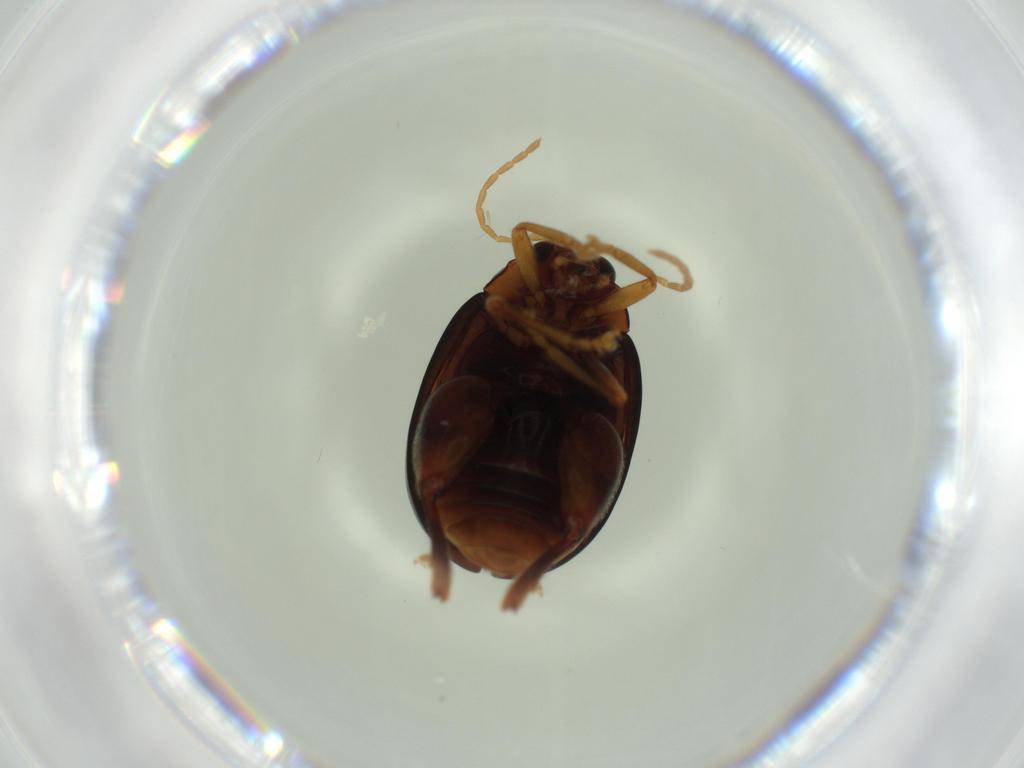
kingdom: Animalia
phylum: Arthropoda
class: Insecta
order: Coleoptera
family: Chrysomelidae
